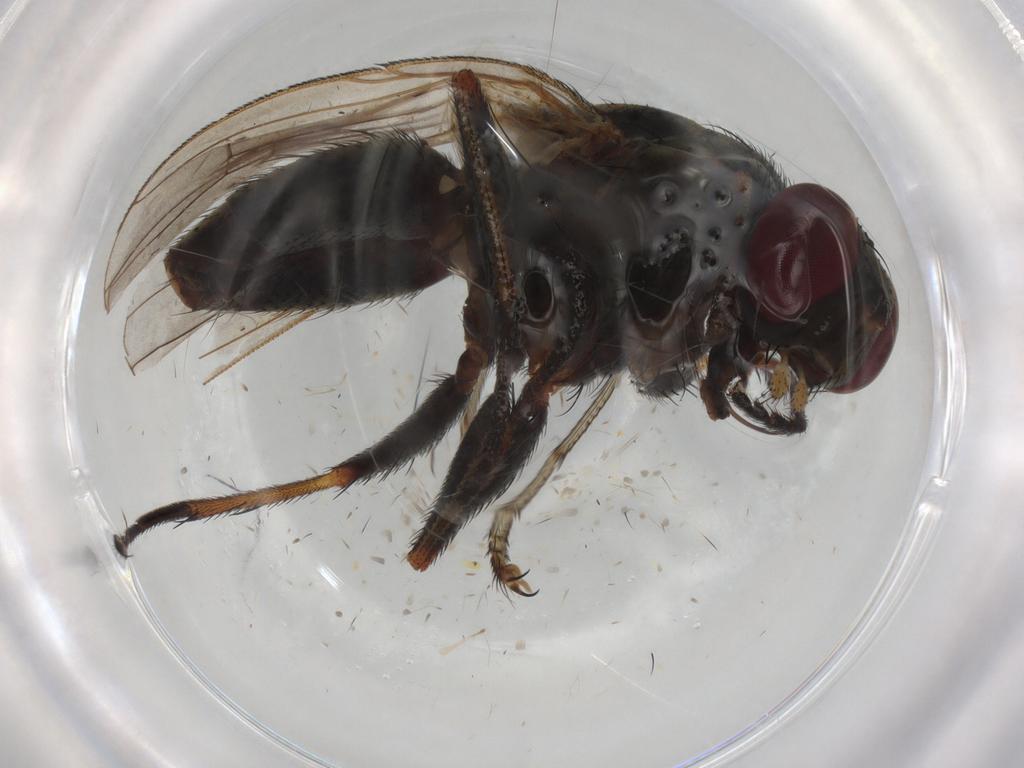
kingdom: Animalia
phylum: Arthropoda
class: Insecta
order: Diptera
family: Muscidae
